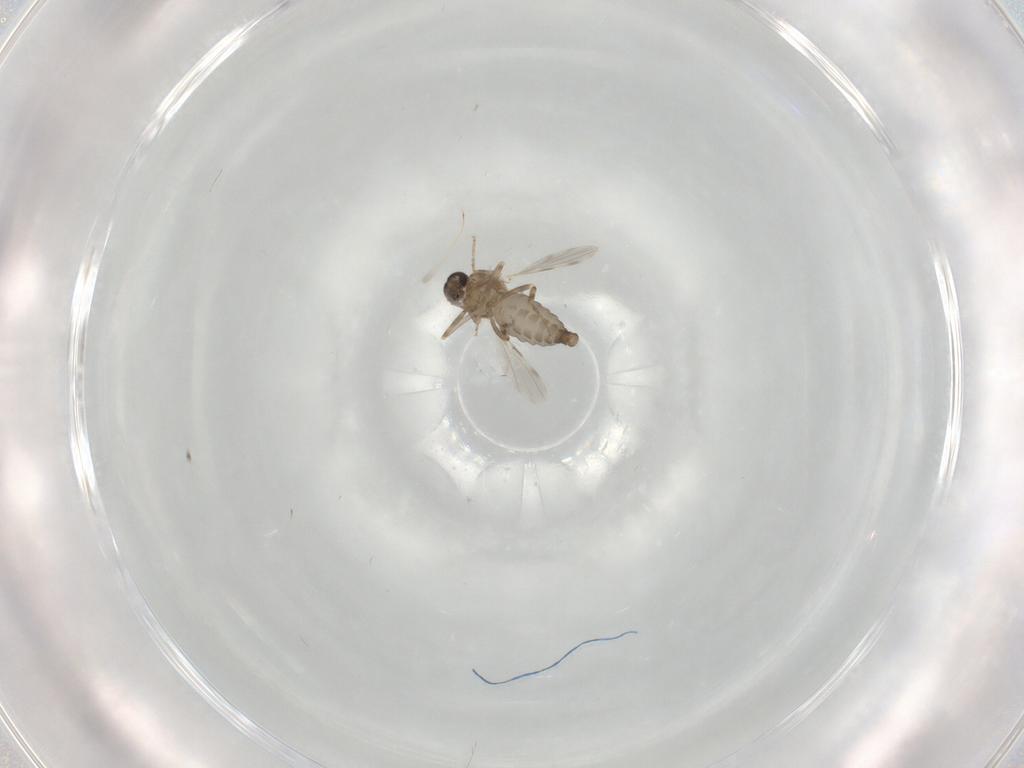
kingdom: Animalia
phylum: Arthropoda
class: Insecta
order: Diptera
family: Ceratopogonidae
